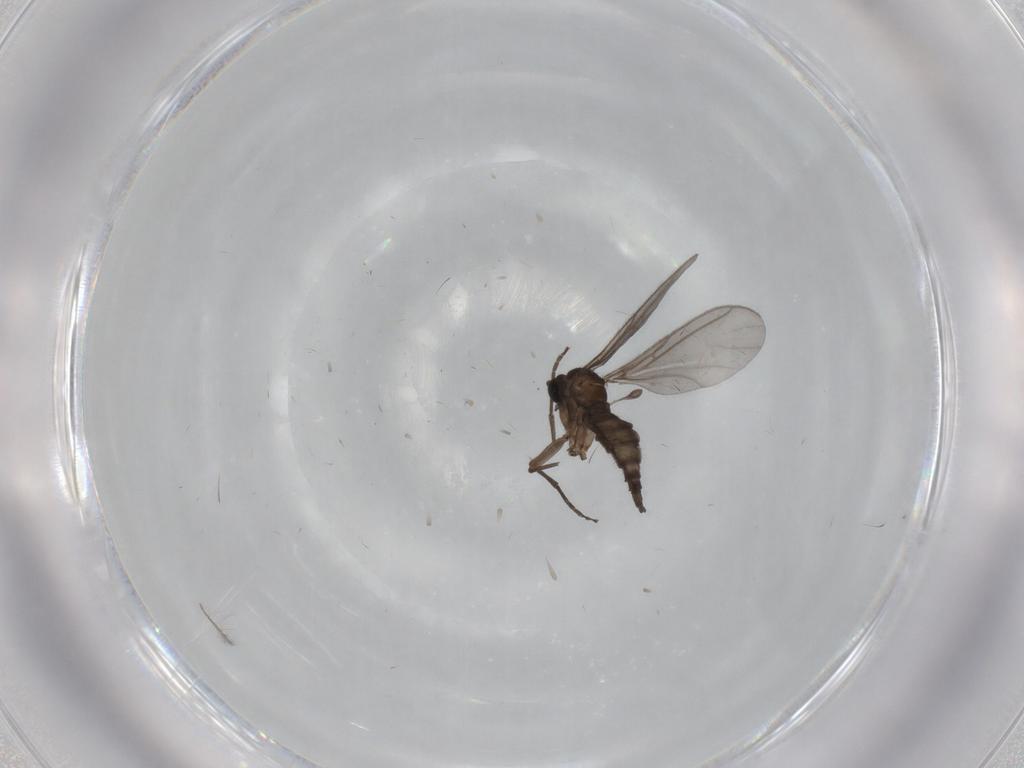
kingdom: Animalia
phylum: Arthropoda
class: Insecta
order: Diptera
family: Sciaridae
